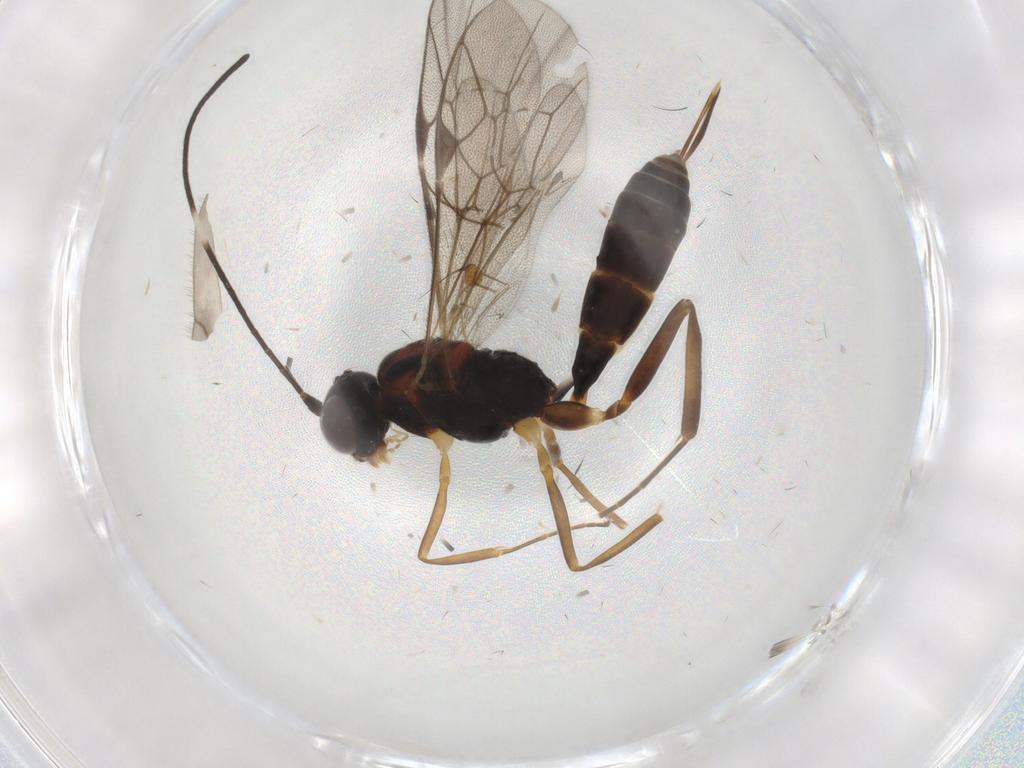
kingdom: Animalia
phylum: Arthropoda
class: Insecta
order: Hymenoptera
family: Ichneumonidae
